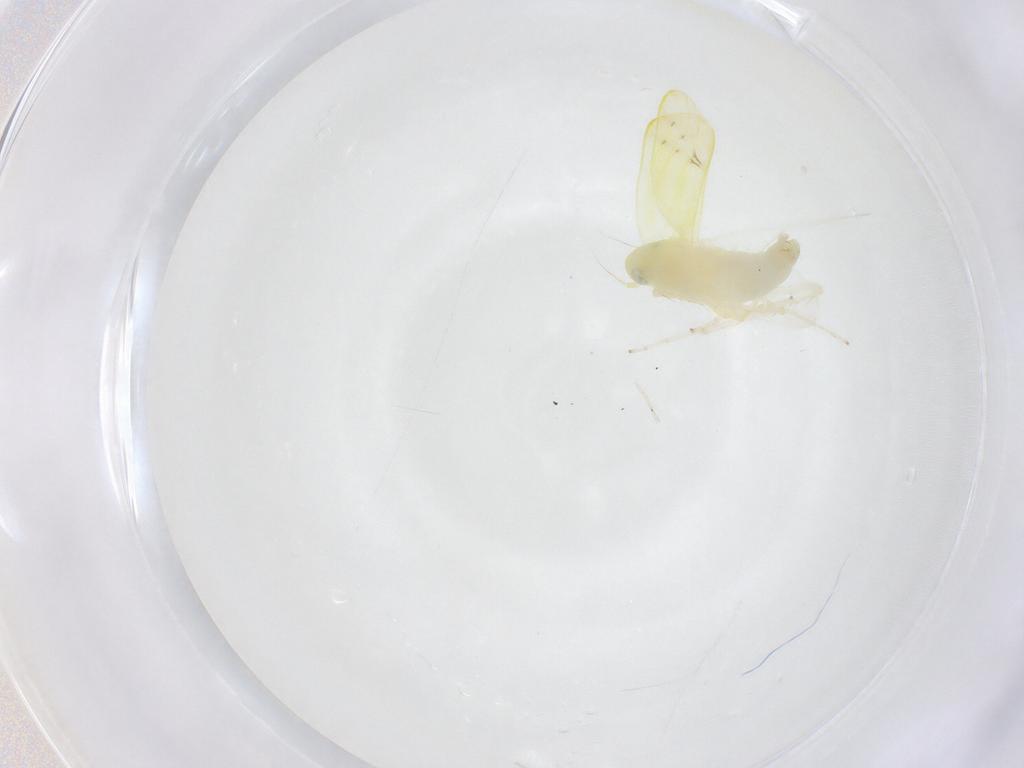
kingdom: Animalia
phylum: Arthropoda
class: Insecta
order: Hemiptera
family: Cicadellidae
